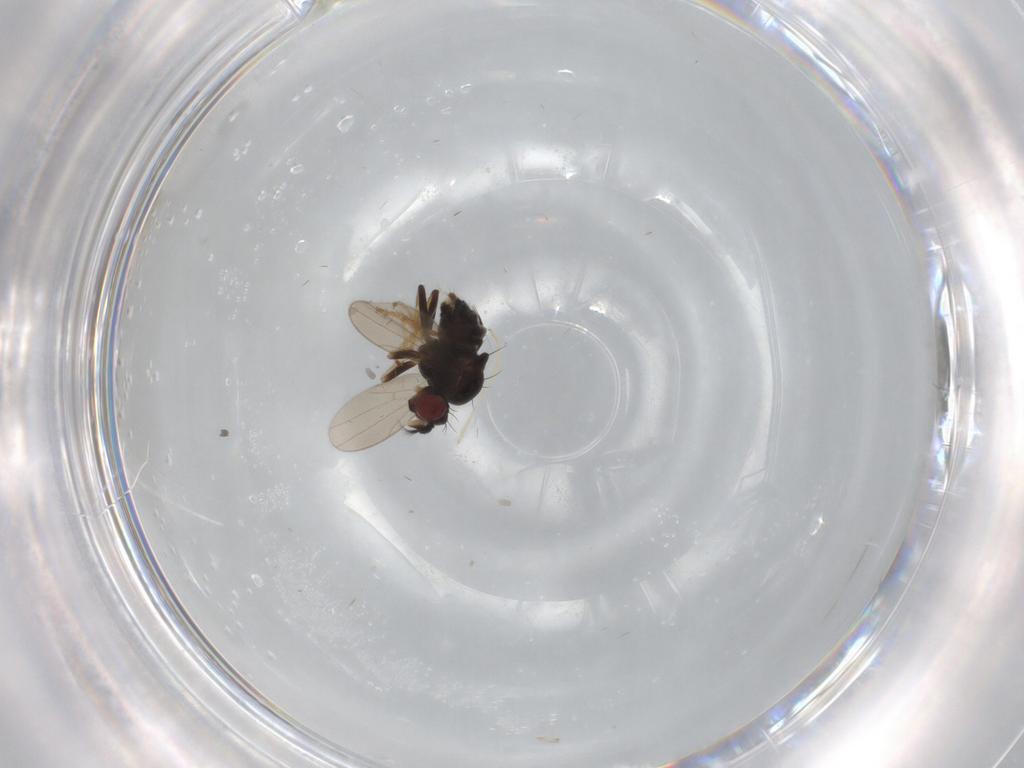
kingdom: Animalia
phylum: Arthropoda
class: Insecta
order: Diptera
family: Ephydridae
